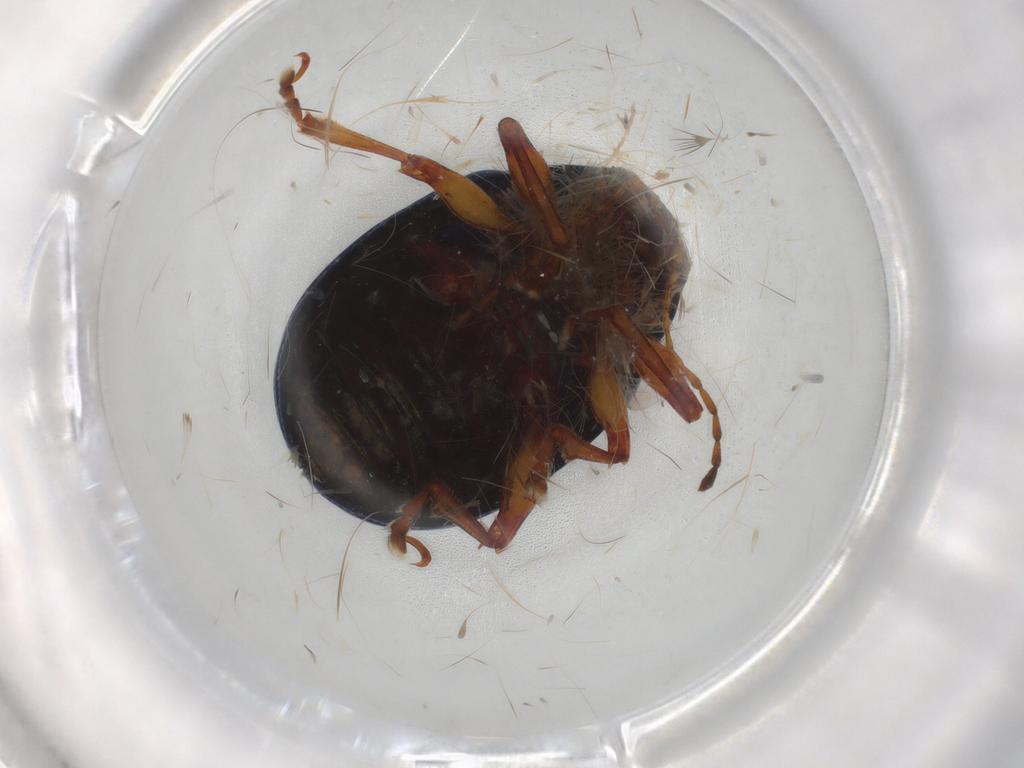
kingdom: Animalia
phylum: Arthropoda
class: Insecta
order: Coleoptera
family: Chrysomelidae
